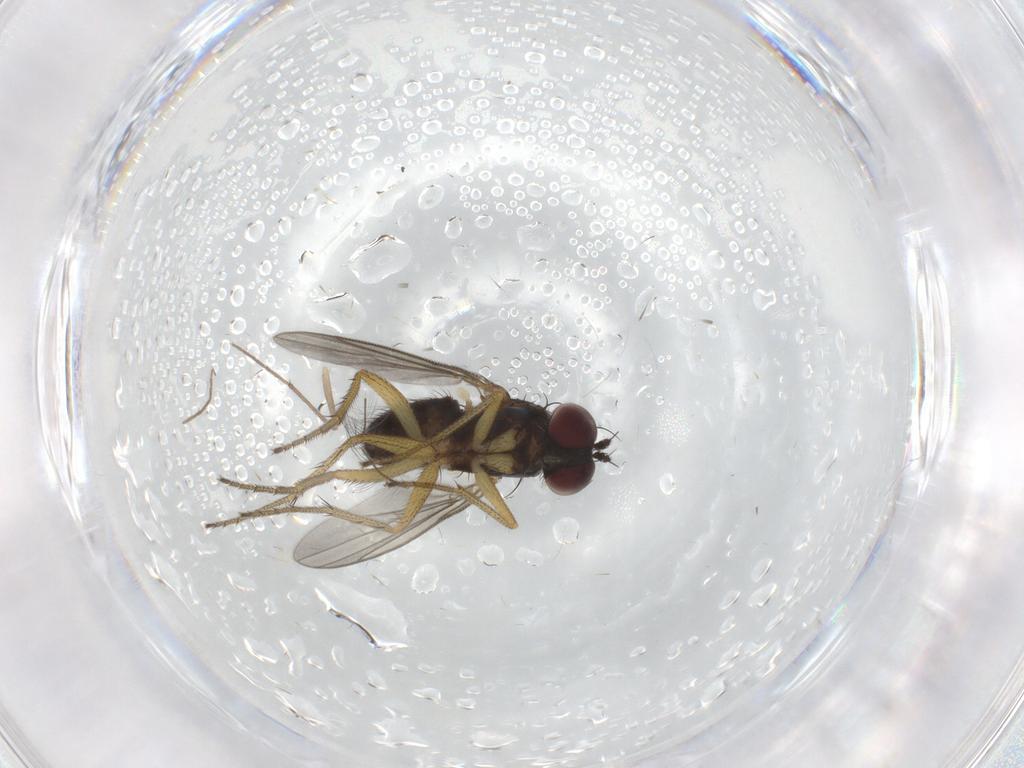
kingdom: Animalia
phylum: Arthropoda
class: Insecta
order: Diptera
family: Chironomidae
